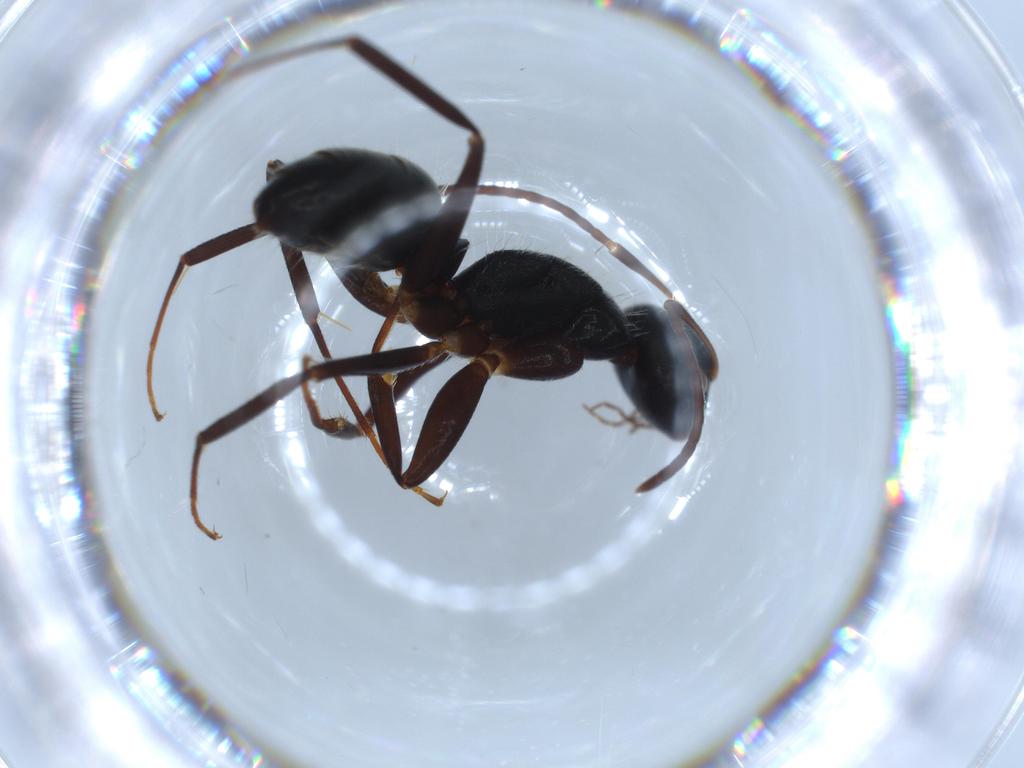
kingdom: Animalia
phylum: Arthropoda
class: Insecta
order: Hymenoptera
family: Formicidae
